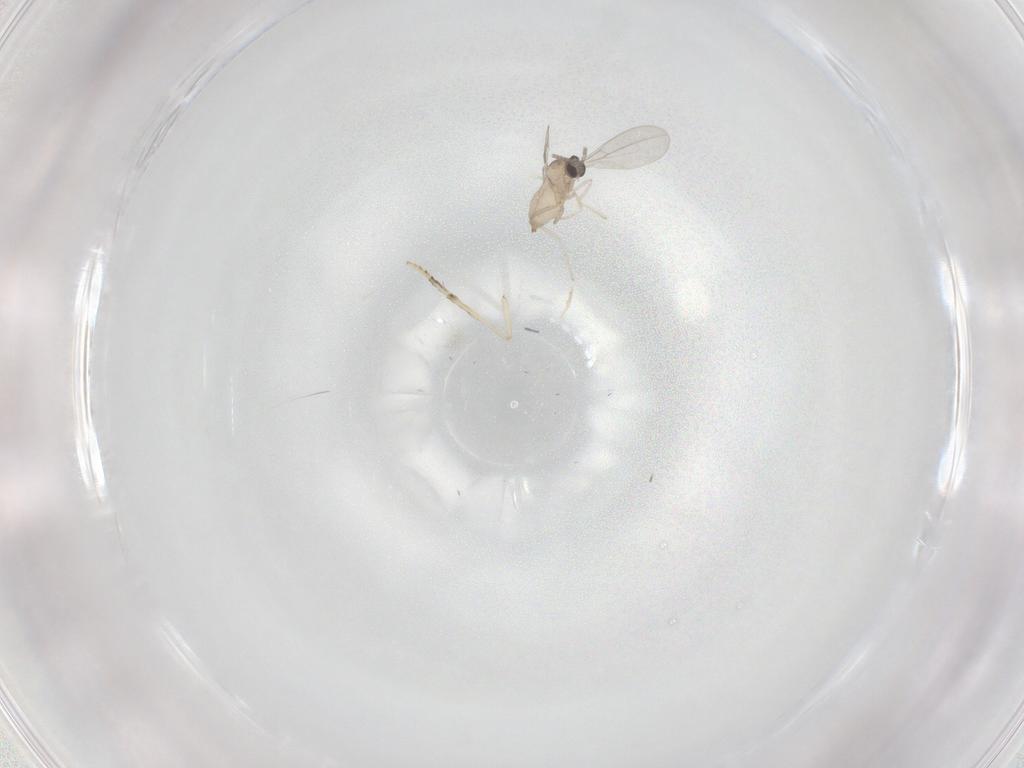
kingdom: Animalia
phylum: Arthropoda
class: Insecta
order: Diptera
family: Cecidomyiidae
